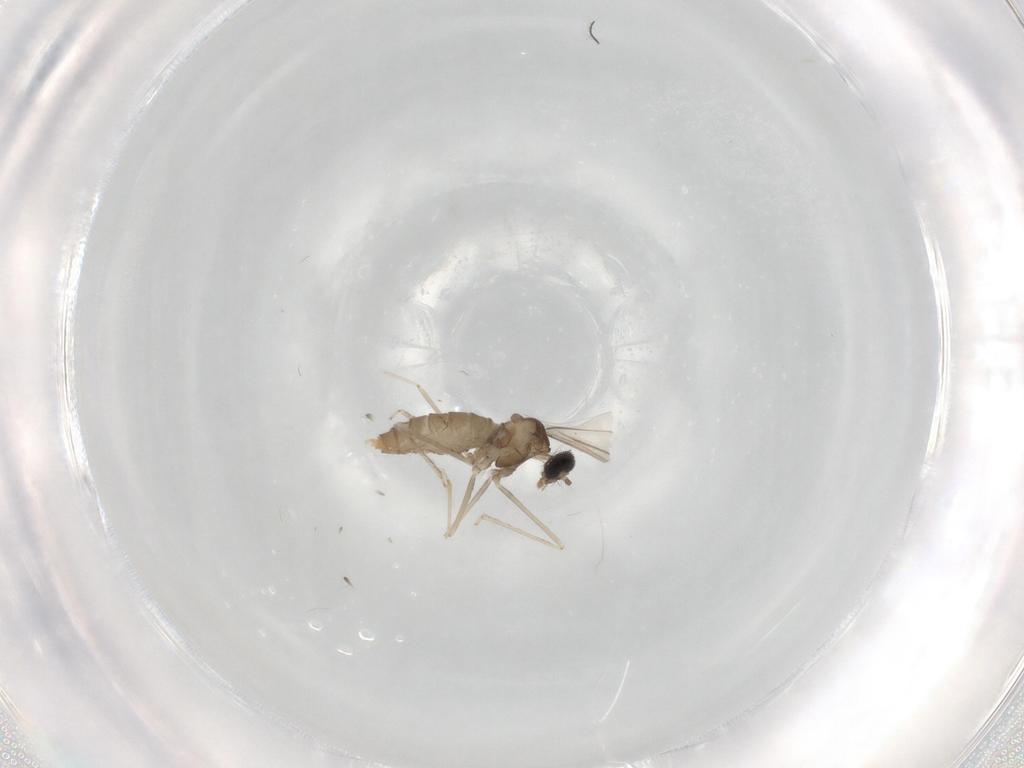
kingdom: Animalia
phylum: Arthropoda
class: Insecta
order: Diptera
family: Cecidomyiidae
